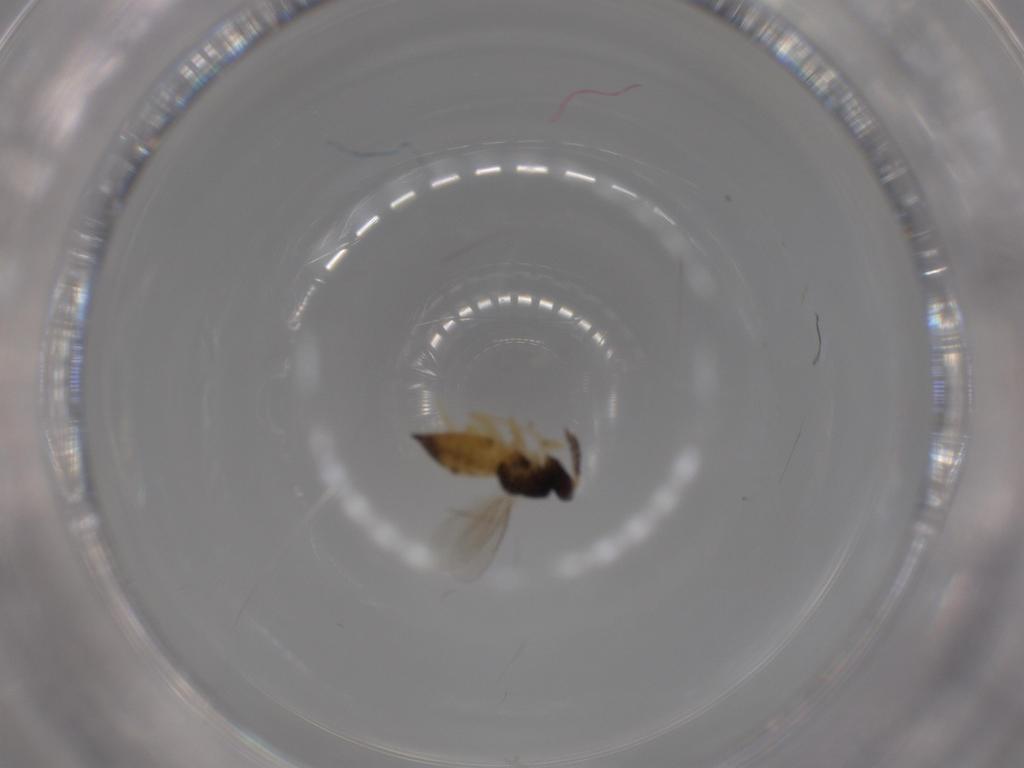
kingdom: Animalia
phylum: Arthropoda
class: Insecta
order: Hymenoptera
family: Eulophidae
